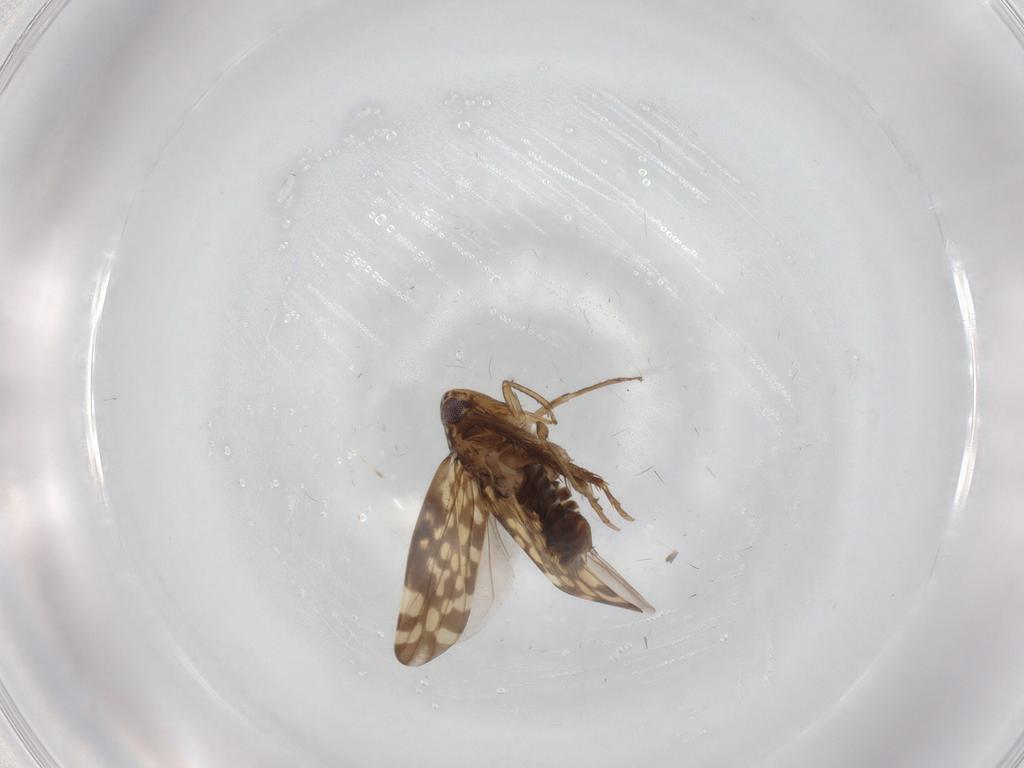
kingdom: Animalia
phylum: Arthropoda
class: Insecta
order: Hemiptera
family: Cicadellidae
